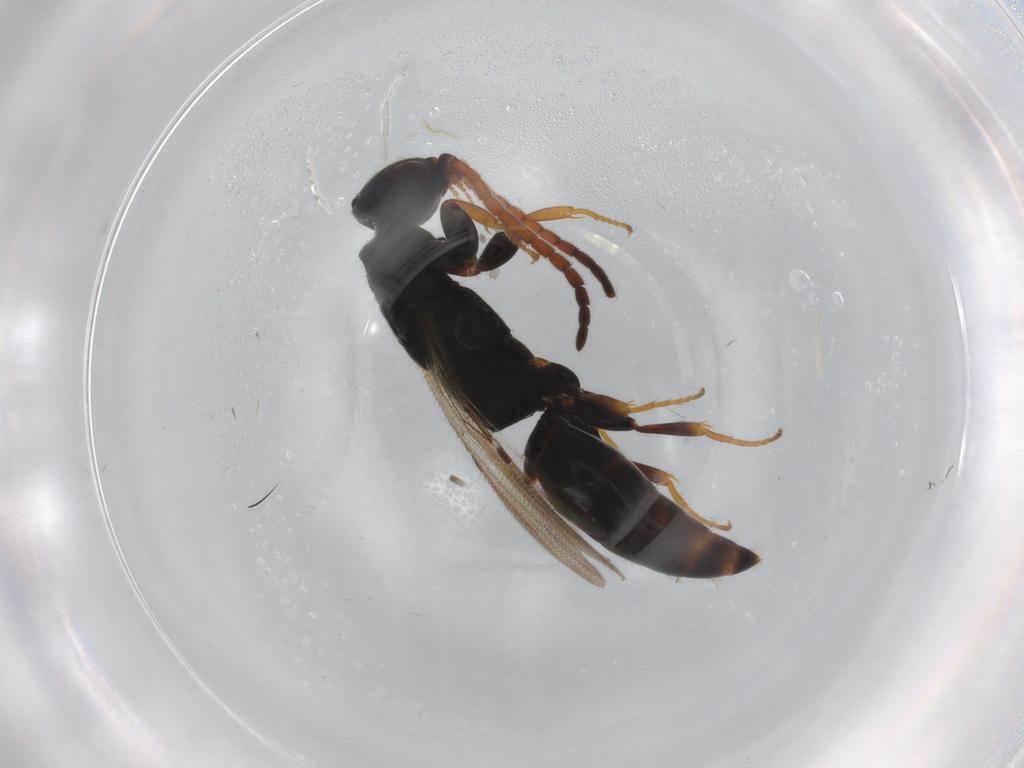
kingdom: Animalia
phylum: Arthropoda
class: Insecta
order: Hymenoptera
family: Bethylidae
